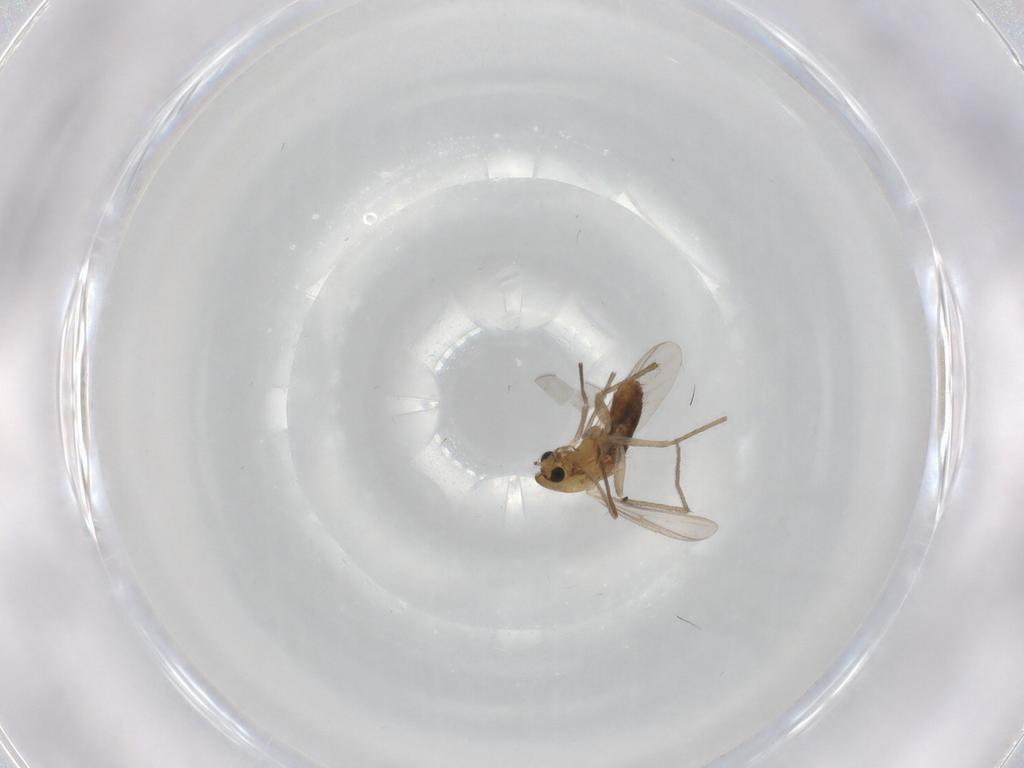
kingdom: Animalia
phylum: Arthropoda
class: Insecta
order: Diptera
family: Chironomidae
